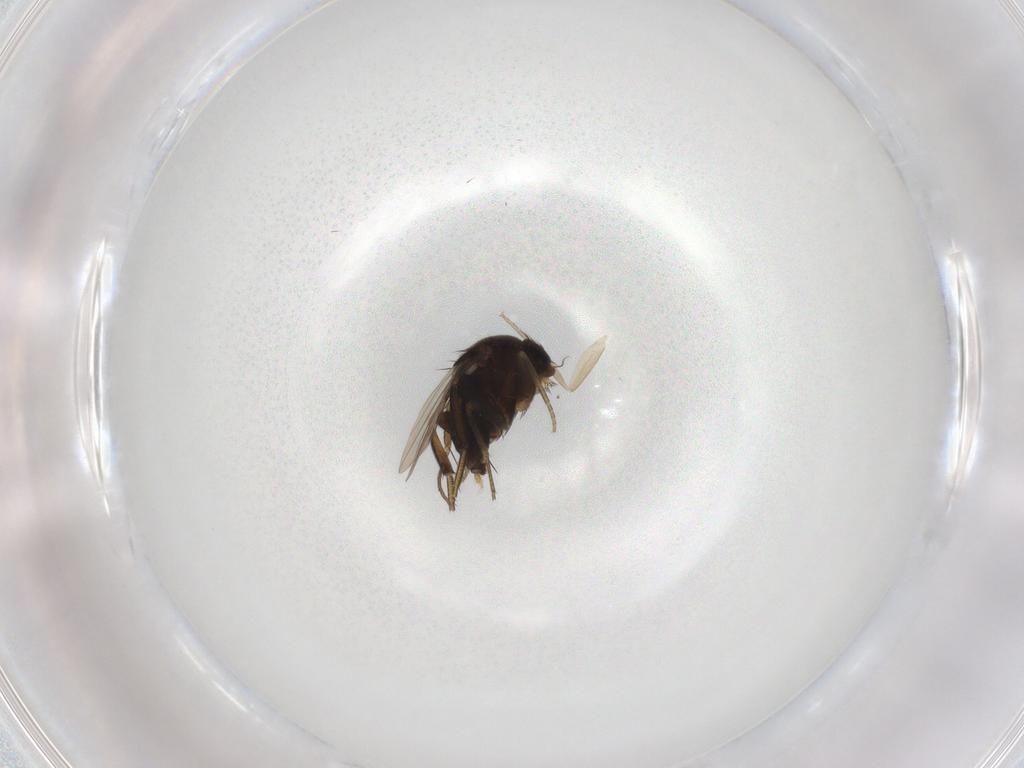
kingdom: Animalia
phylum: Arthropoda
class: Insecta
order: Diptera
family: Phoridae
